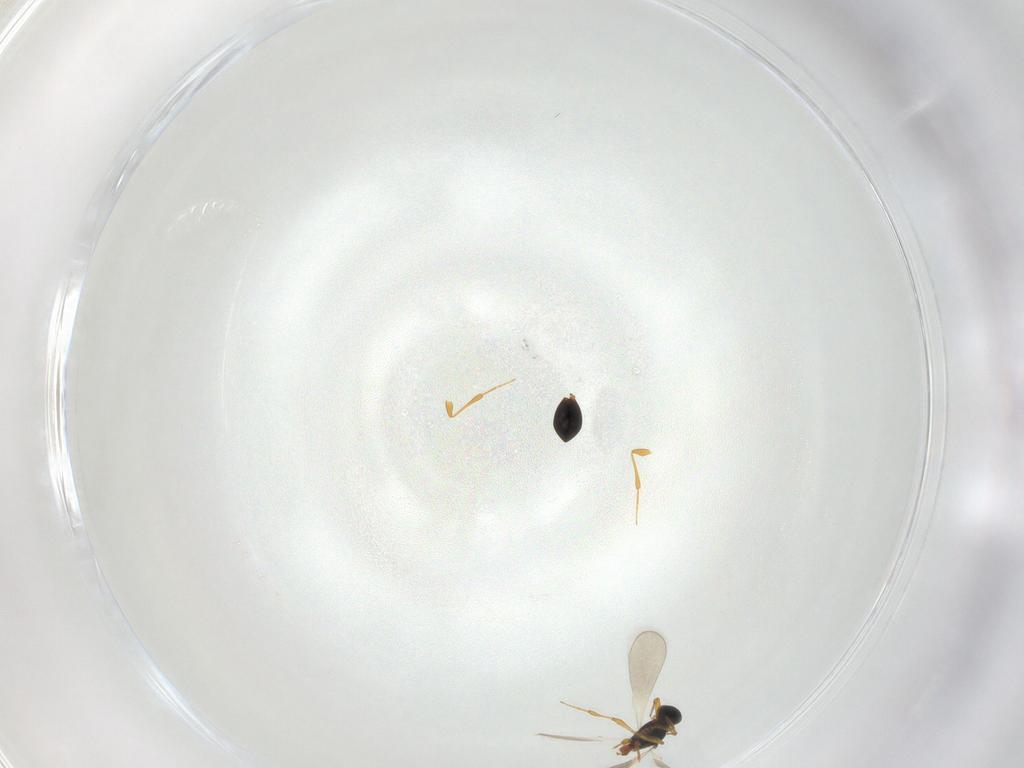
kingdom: Animalia
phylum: Arthropoda
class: Insecta
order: Hymenoptera
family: Platygastridae
